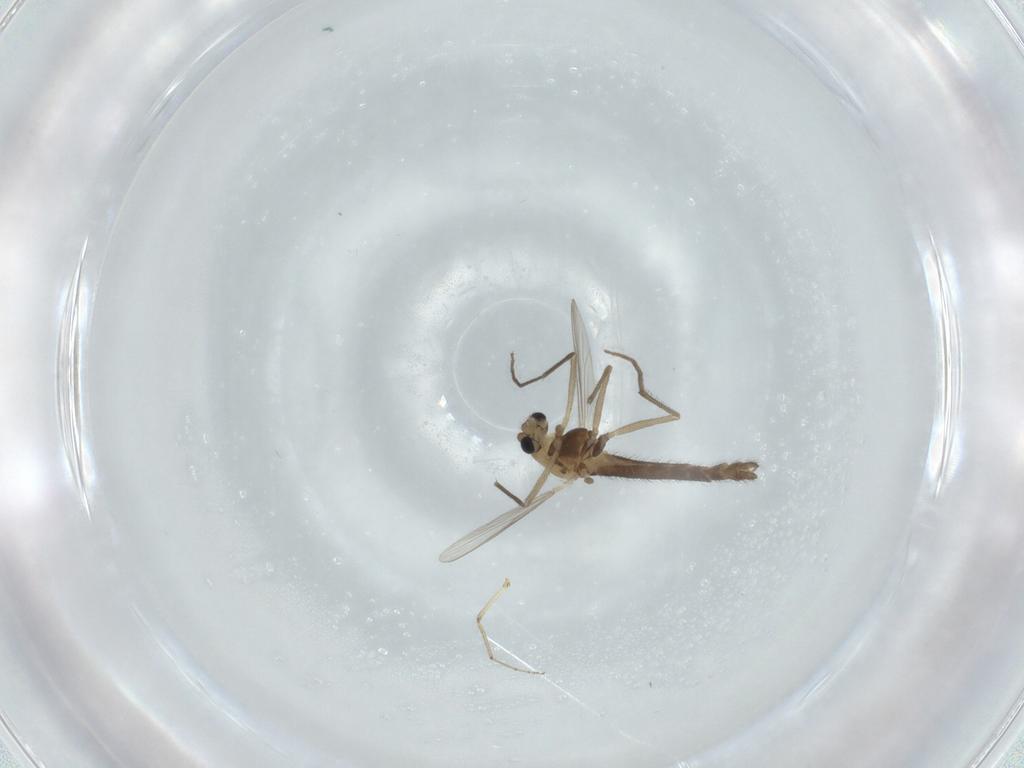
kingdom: Animalia
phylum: Arthropoda
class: Insecta
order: Diptera
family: Chironomidae
